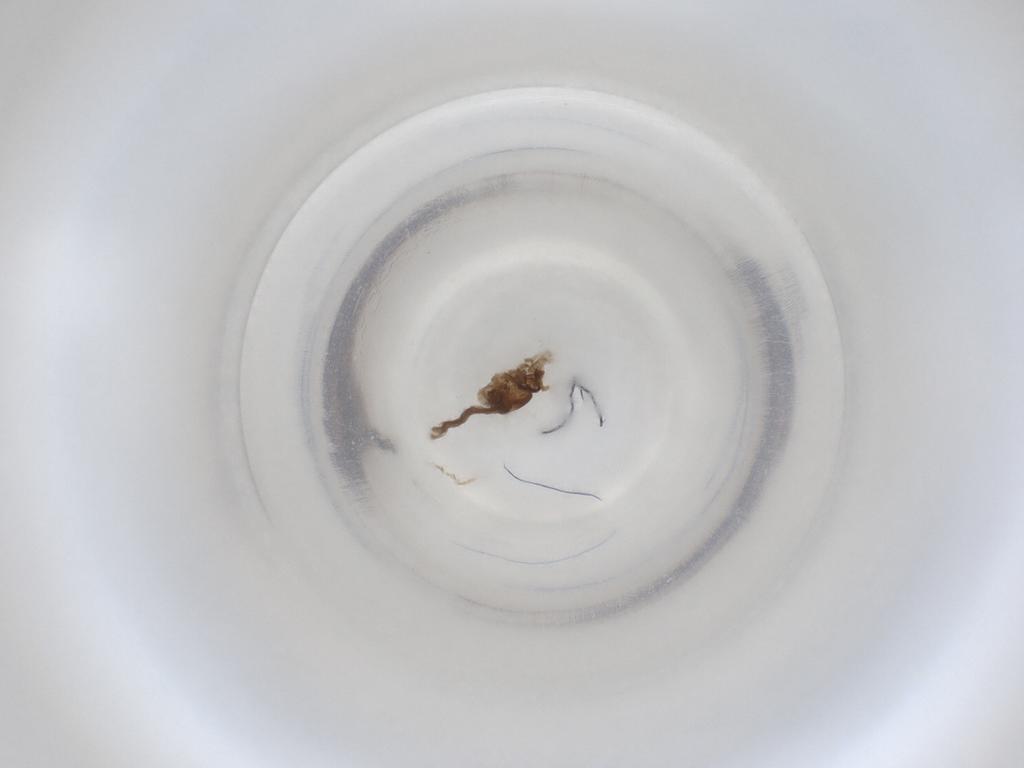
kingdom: Animalia
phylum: Arthropoda
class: Insecta
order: Diptera
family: Cecidomyiidae
